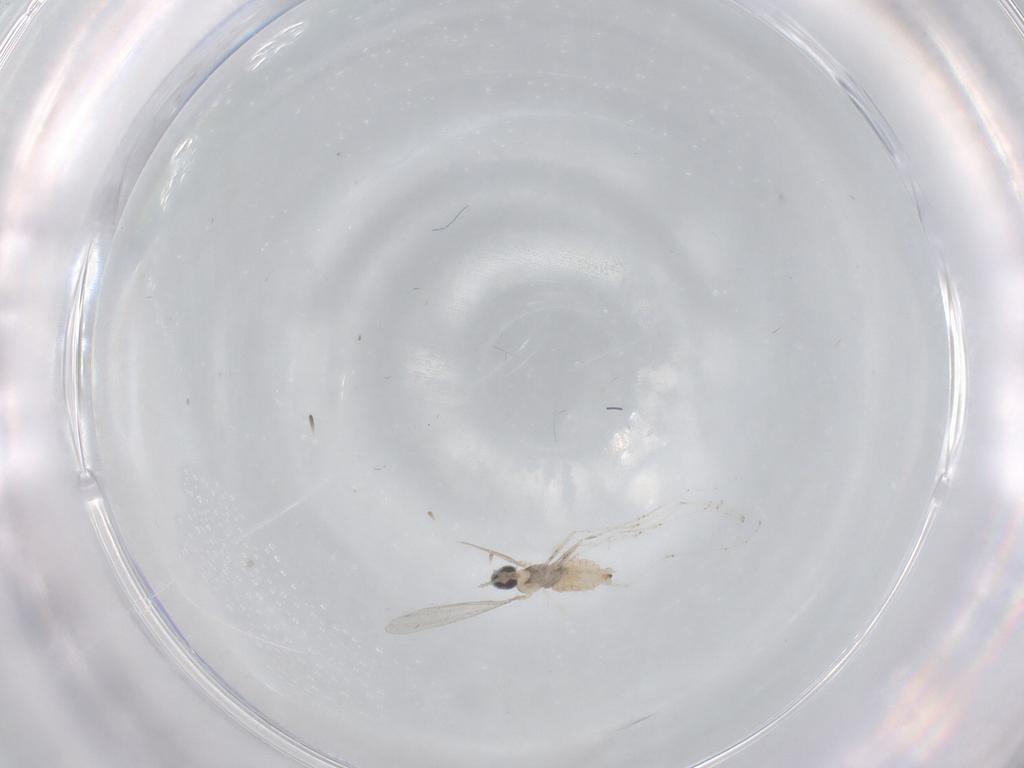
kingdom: Animalia
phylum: Arthropoda
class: Insecta
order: Diptera
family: Cecidomyiidae
